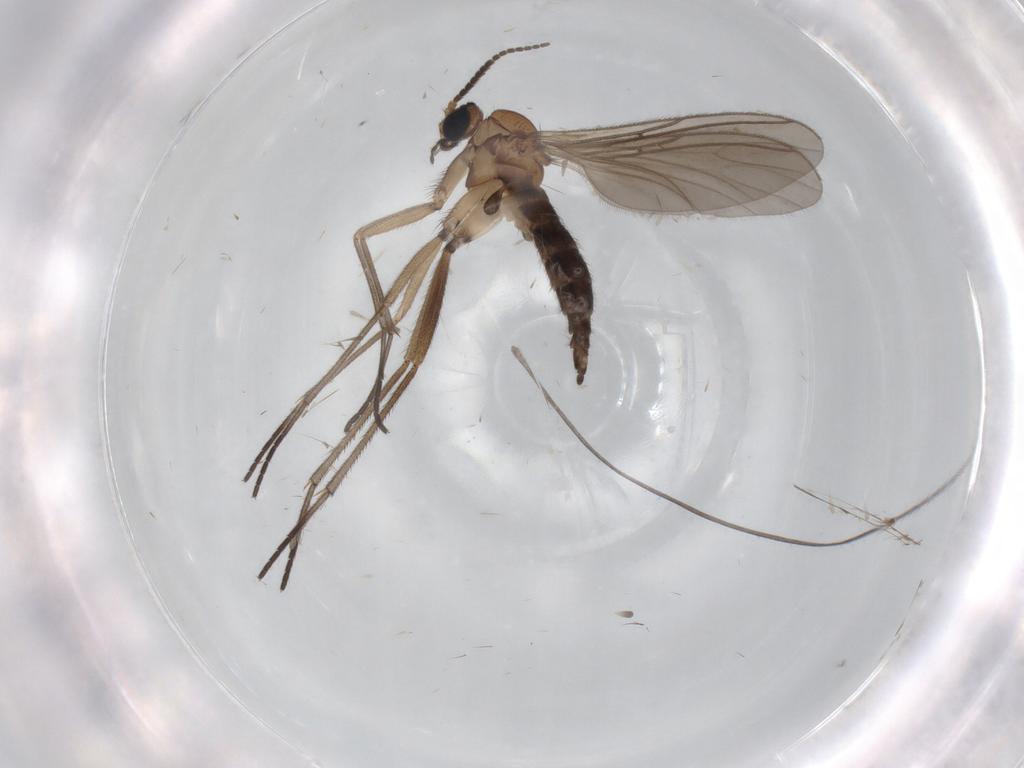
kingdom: Animalia
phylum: Arthropoda
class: Insecta
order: Diptera
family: Sciaridae
